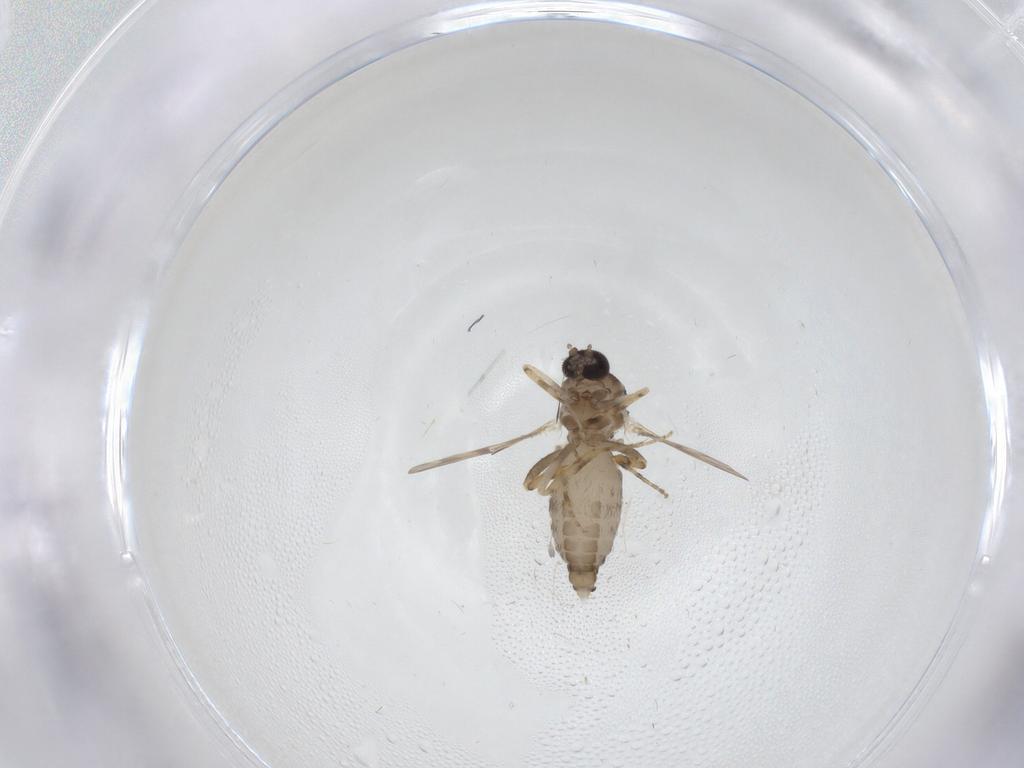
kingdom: Animalia
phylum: Arthropoda
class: Insecta
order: Diptera
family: Ceratopogonidae
